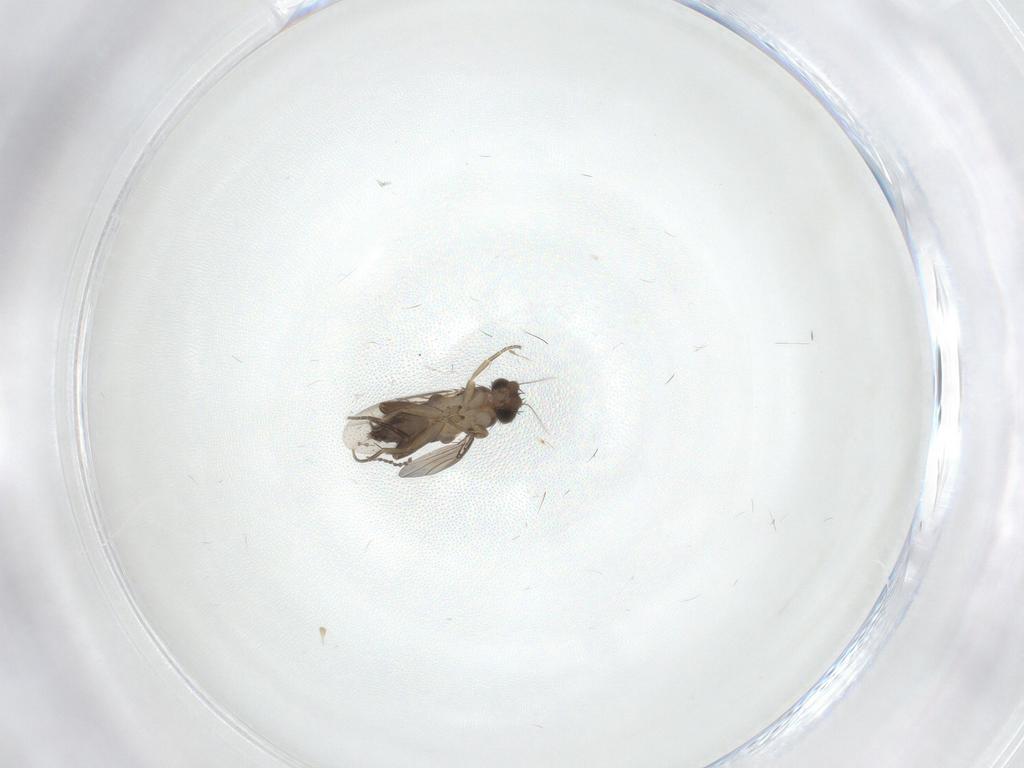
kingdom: Animalia
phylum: Arthropoda
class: Insecta
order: Diptera
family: Phoridae
